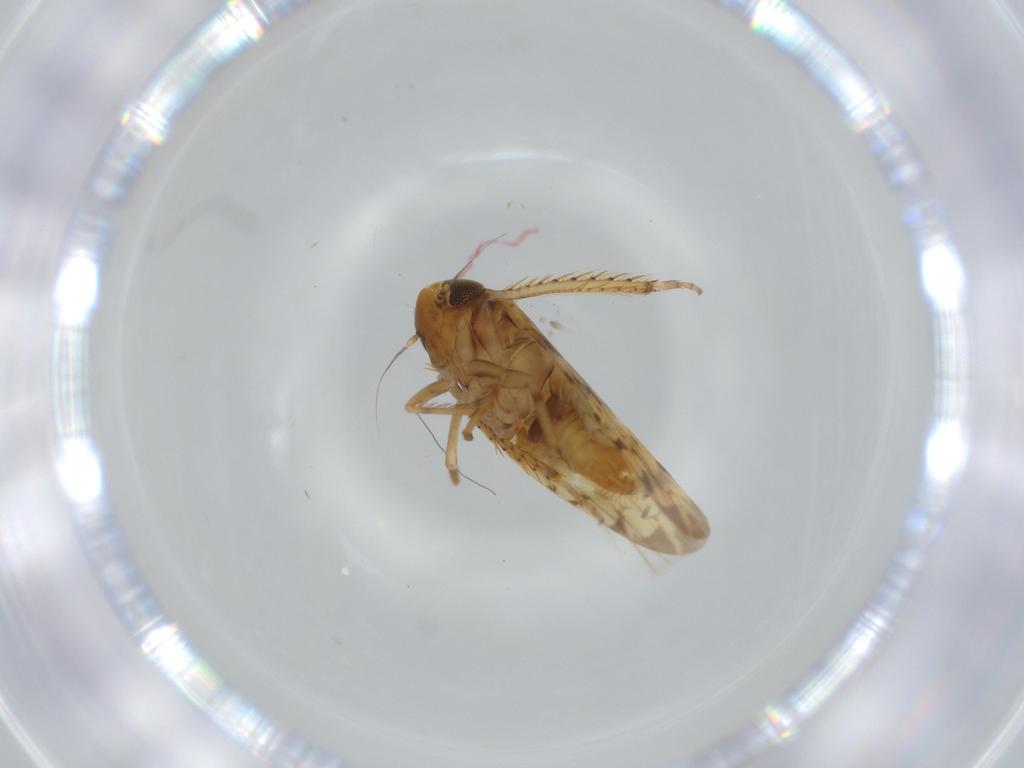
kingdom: Animalia
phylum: Arthropoda
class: Insecta
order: Hemiptera
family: Cicadellidae
